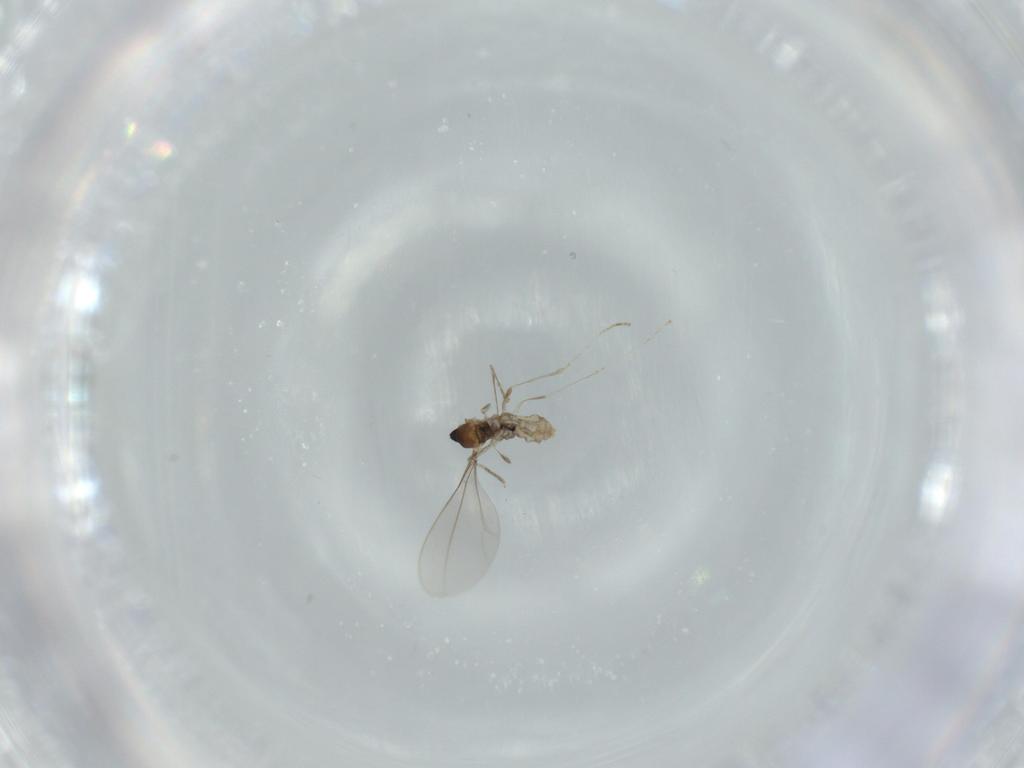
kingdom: Animalia
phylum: Arthropoda
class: Insecta
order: Diptera
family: Cecidomyiidae
